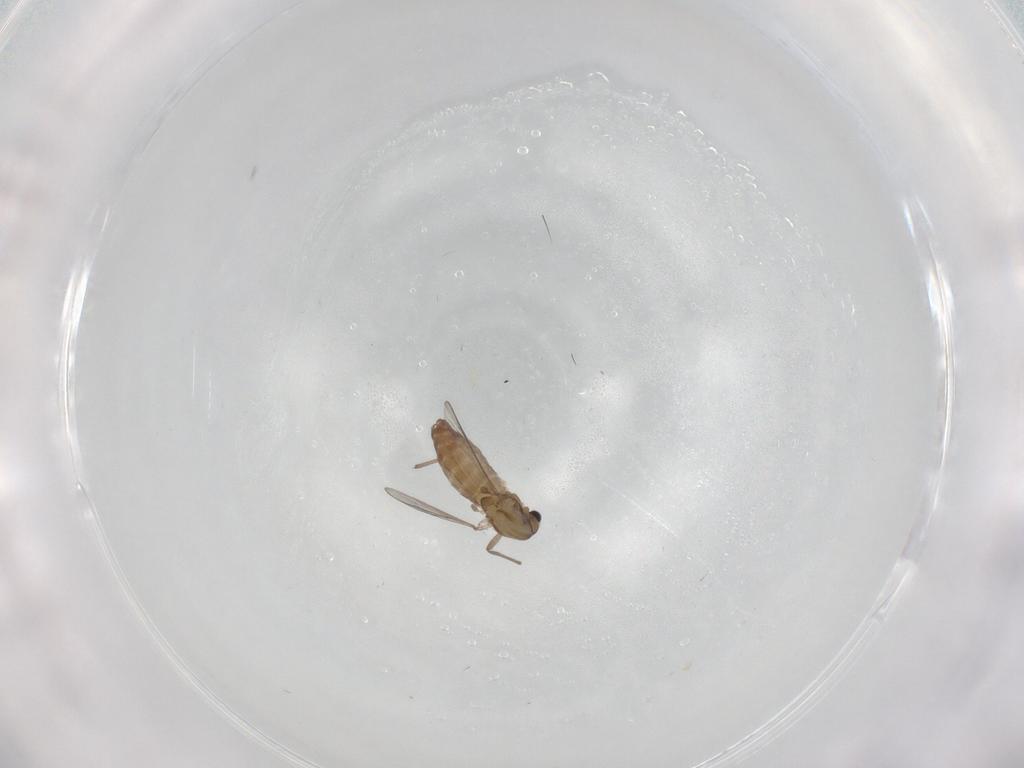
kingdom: Animalia
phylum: Arthropoda
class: Insecta
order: Diptera
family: Chironomidae
